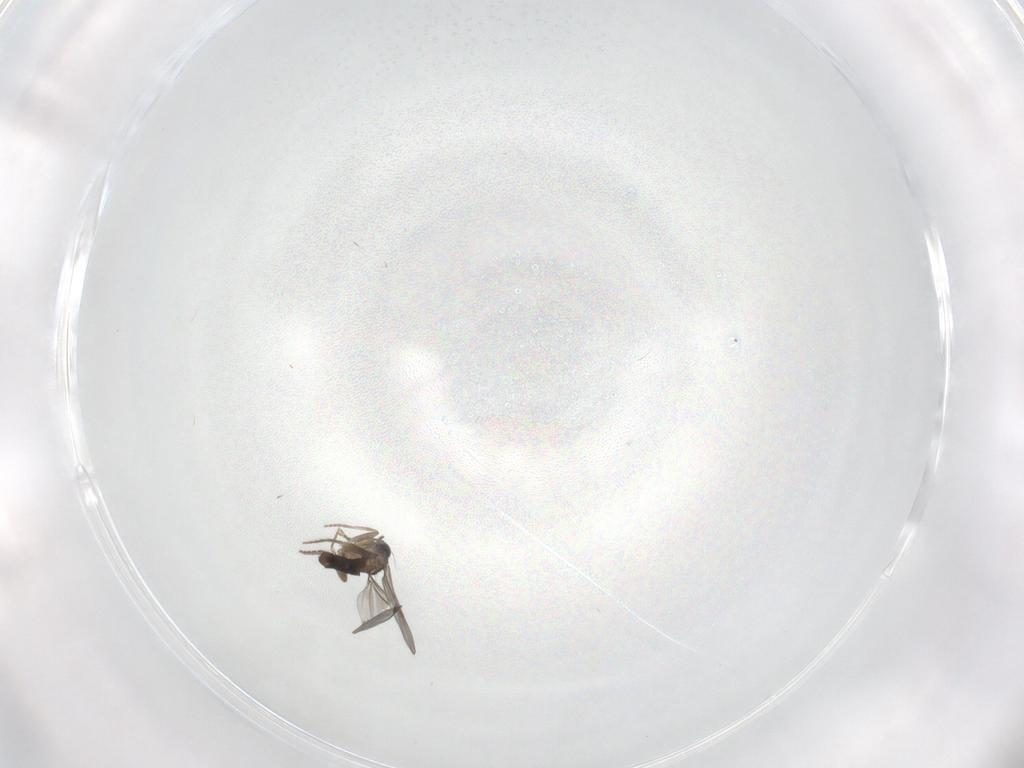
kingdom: Animalia
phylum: Arthropoda
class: Insecta
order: Diptera
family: Cecidomyiidae
